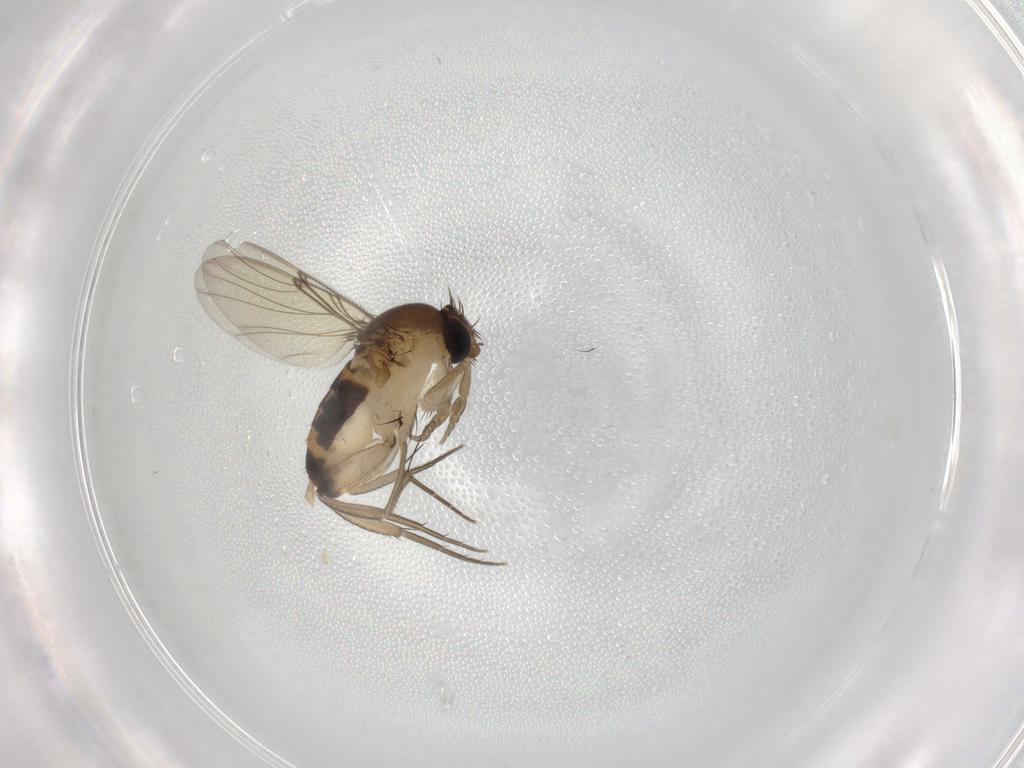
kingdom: Animalia
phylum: Arthropoda
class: Insecta
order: Diptera
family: Phoridae
